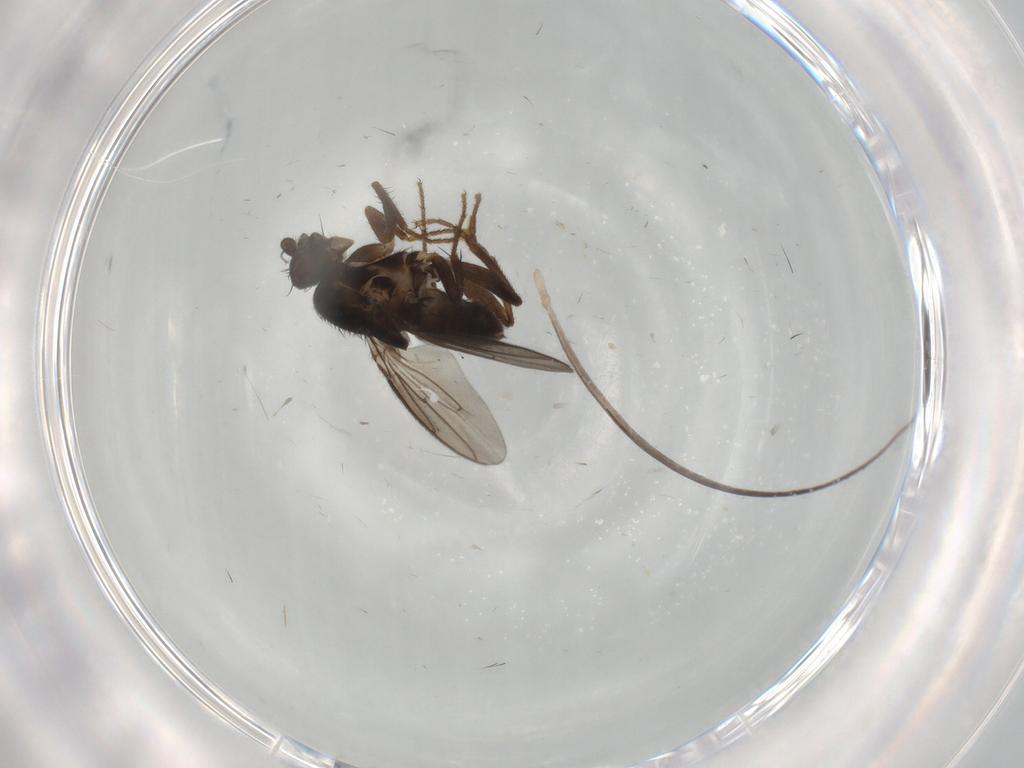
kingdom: Animalia
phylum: Arthropoda
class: Insecta
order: Diptera
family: Sphaeroceridae
